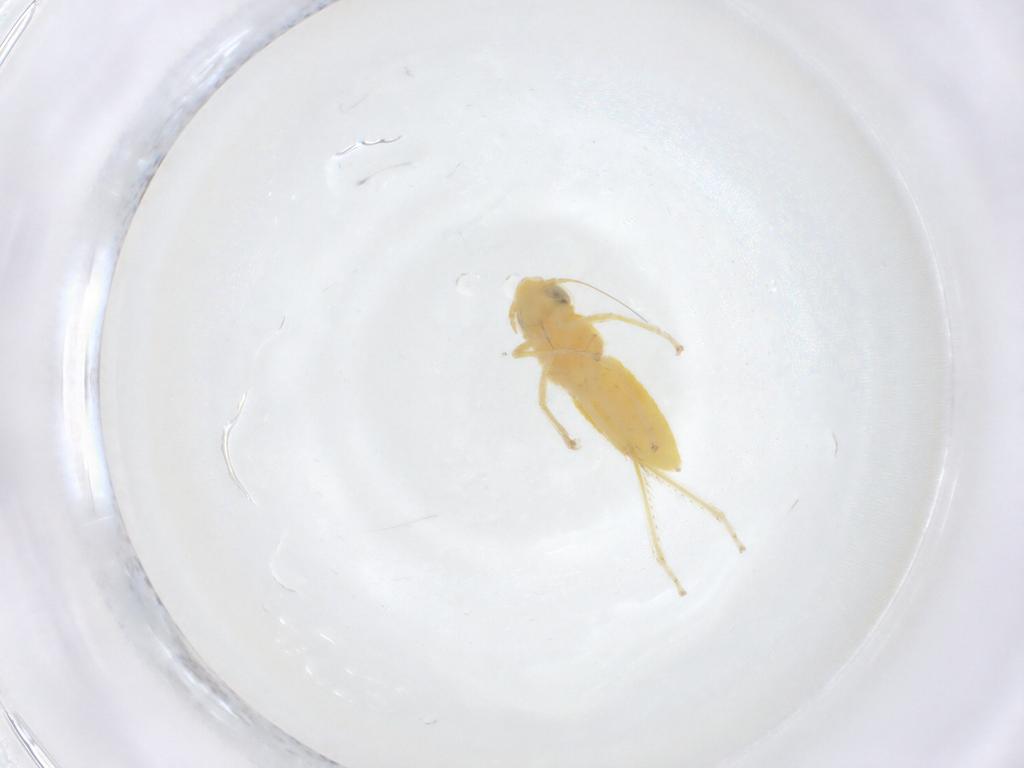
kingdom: Animalia
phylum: Arthropoda
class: Insecta
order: Hemiptera
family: Cicadellidae
